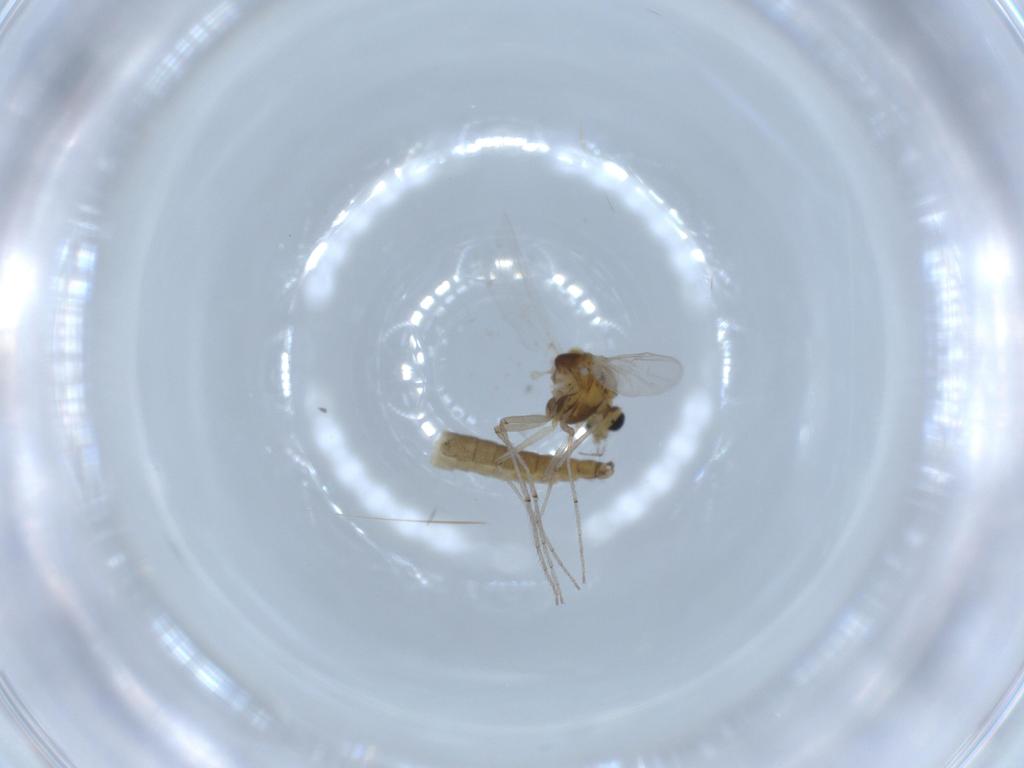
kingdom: Animalia
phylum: Arthropoda
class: Insecta
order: Diptera
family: Chironomidae
